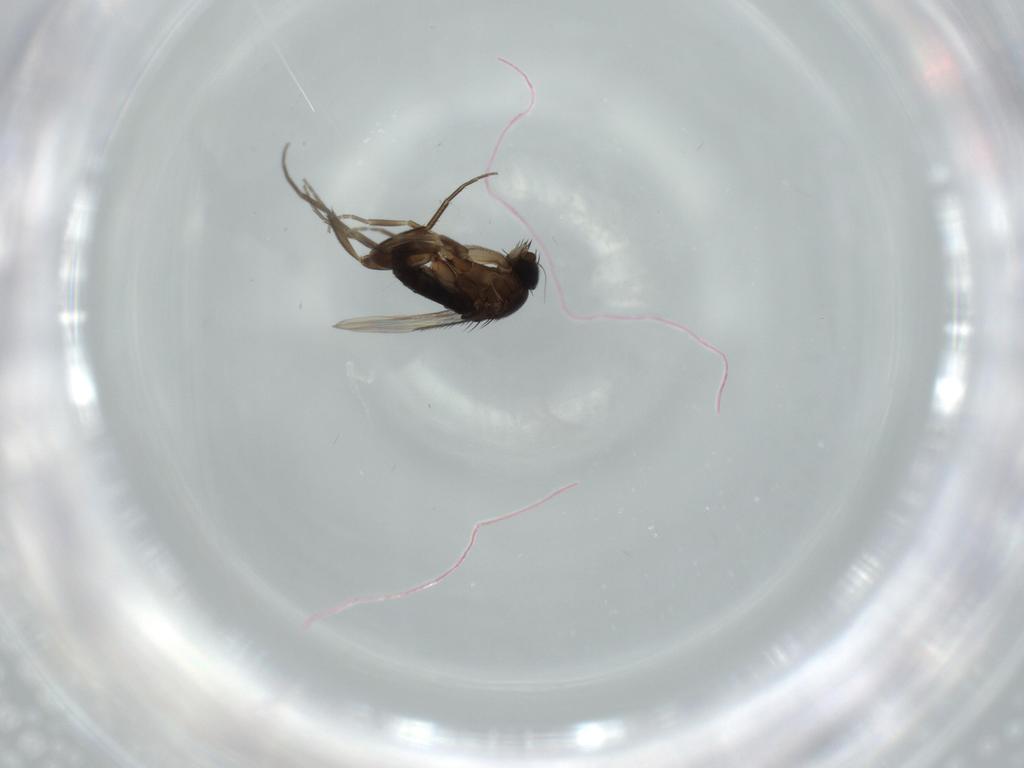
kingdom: Animalia
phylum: Arthropoda
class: Insecta
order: Diptera
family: Phoridae
